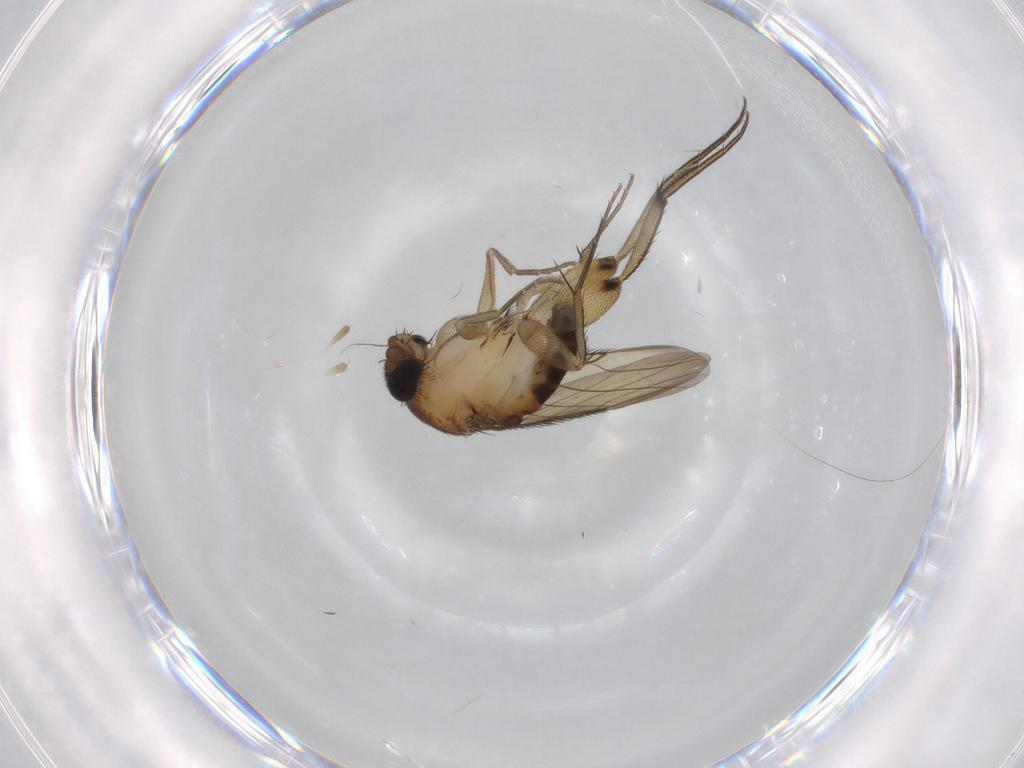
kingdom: Animalia
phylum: Arthropoda
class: Insecta
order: Diptera
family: Phoridae
